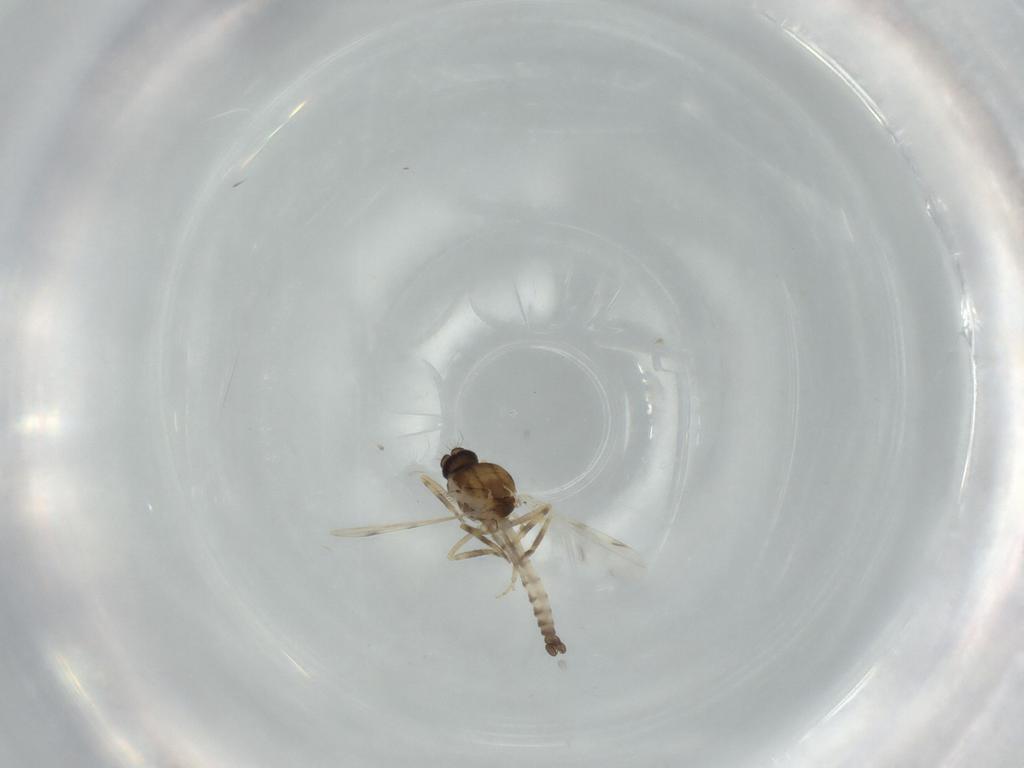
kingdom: Animalia
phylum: Arthropoda
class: Insecta
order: Diptera
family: Ceratopogonidae
